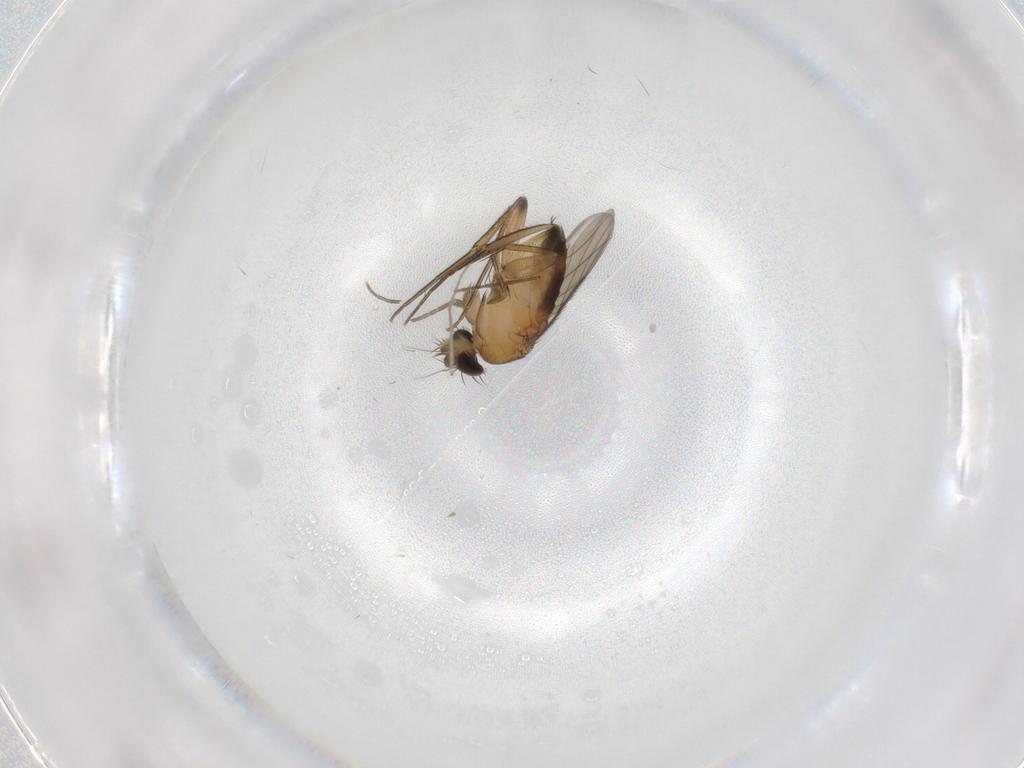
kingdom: Animalia
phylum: Arthropoda
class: Insecta
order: Diptera
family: Phoridae
